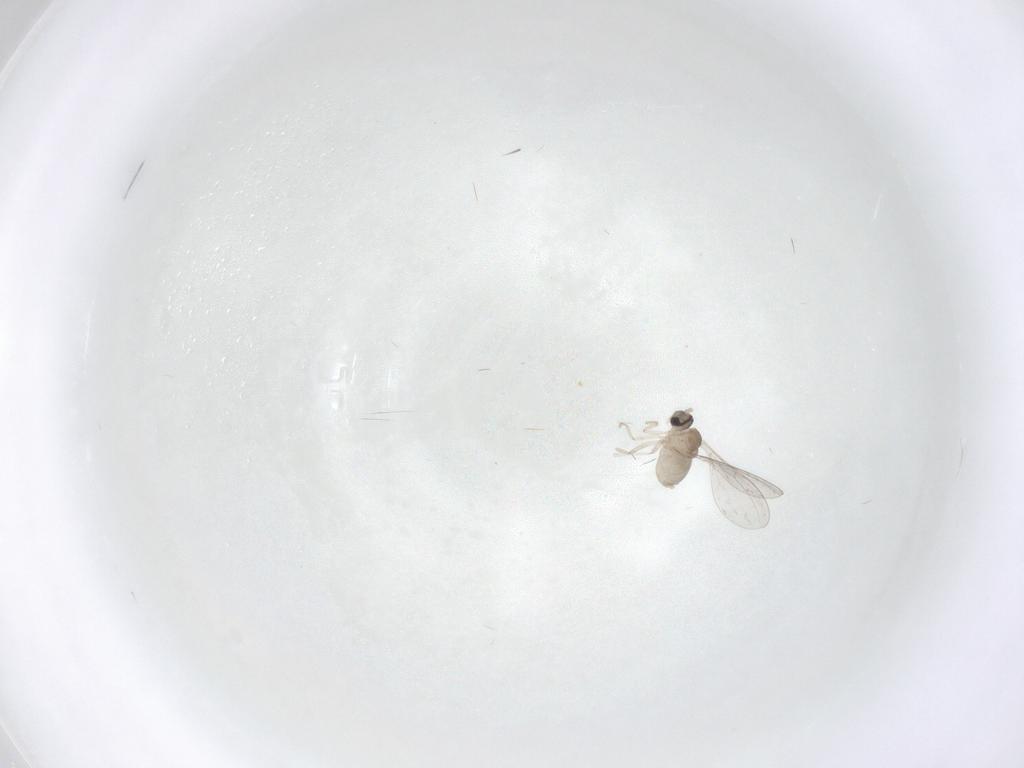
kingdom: Animalia
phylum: Arthropoda
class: Insecta
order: Diptera
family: Cecidomyiidae
